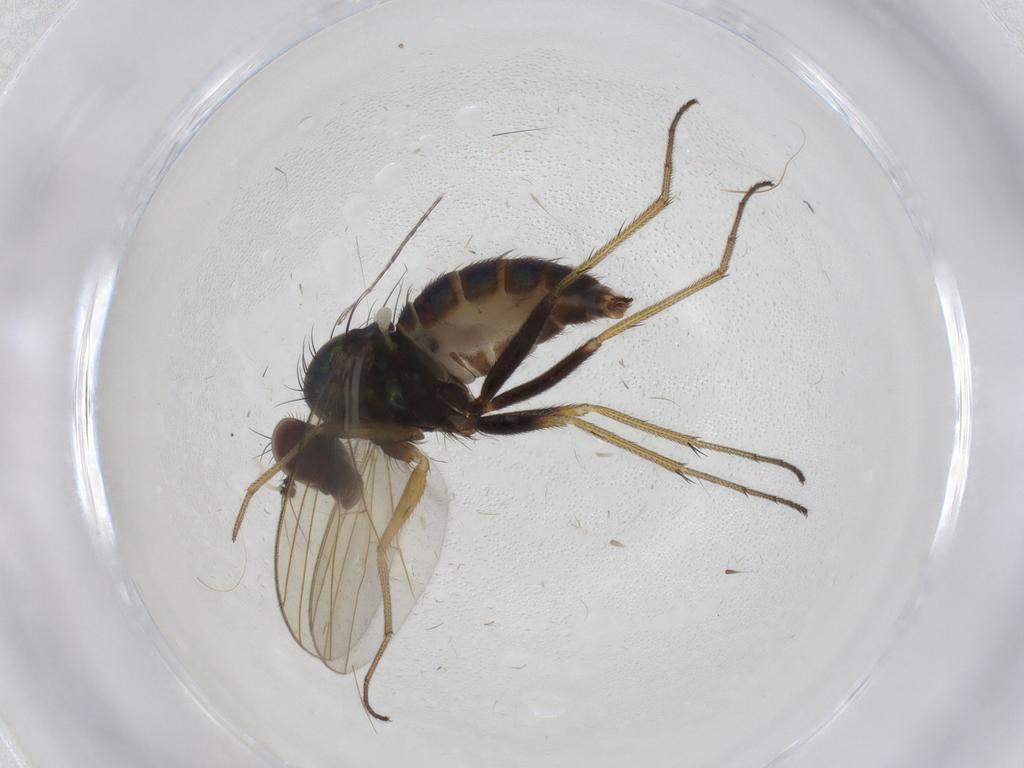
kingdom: Animalia
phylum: Arthropoda
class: Insecta
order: Diptera
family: Dolichopodidae
